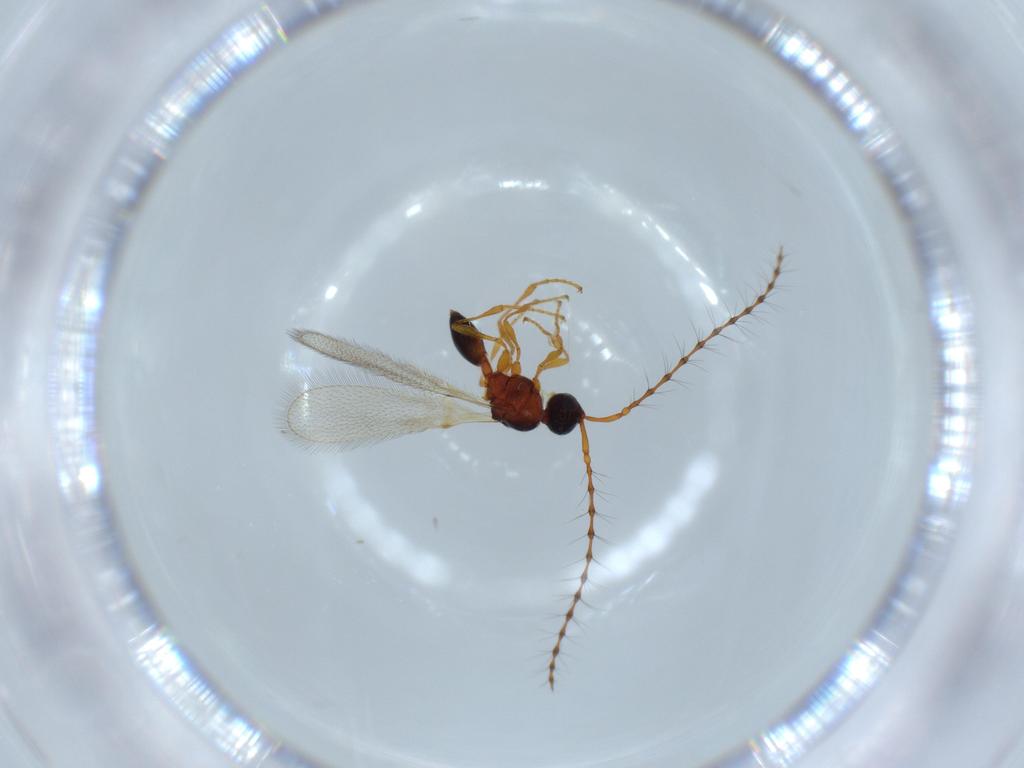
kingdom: Animalia
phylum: Arthropoda
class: Insecta
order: Hymenoptera
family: Diapriidae
